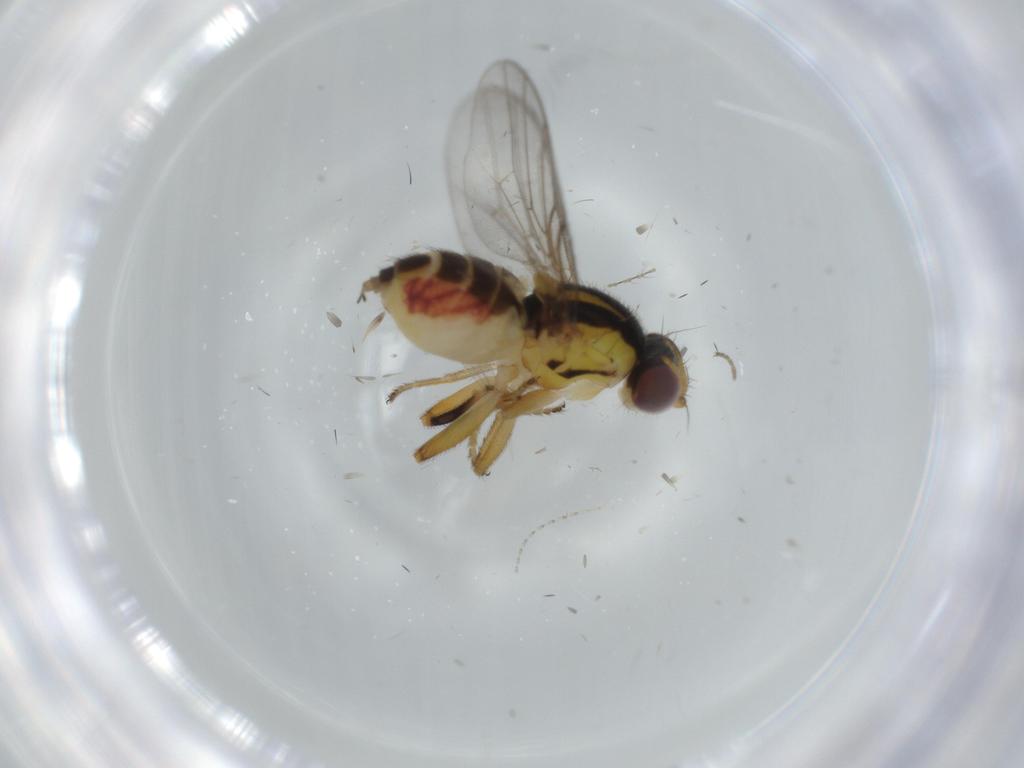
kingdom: Animalia
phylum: Arthropoda
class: Insecta
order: Diptera
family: Chloropidae
